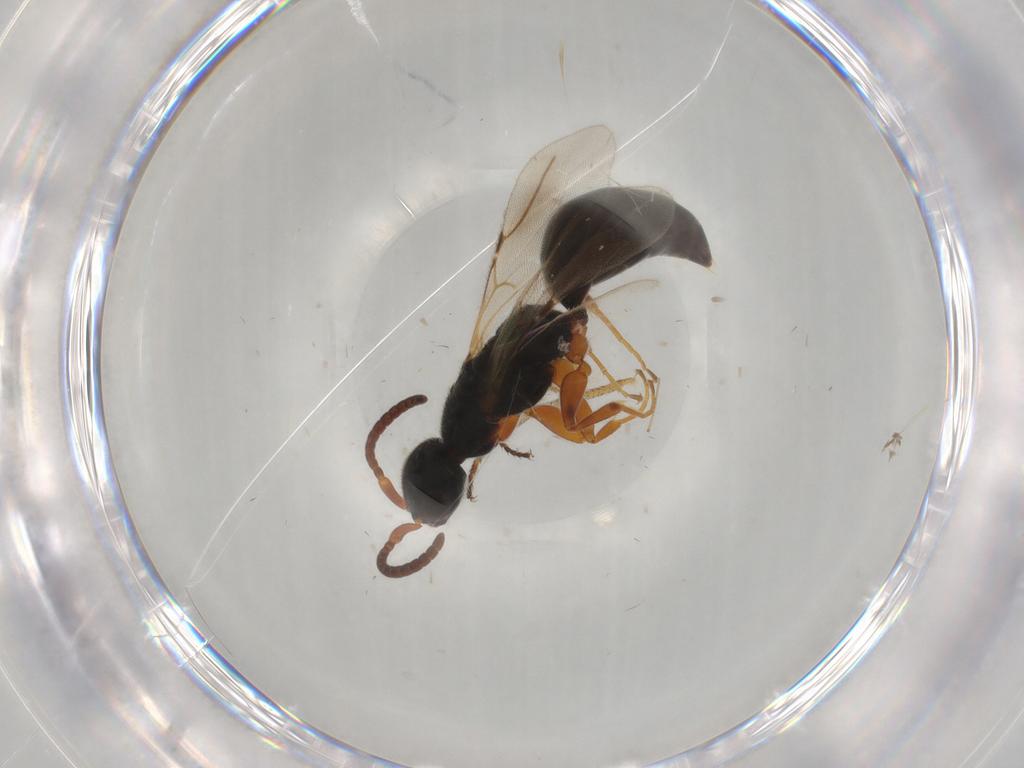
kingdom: Animalia
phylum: Arthropoda
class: Insecta
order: Hymenoptera
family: Bethylidae
